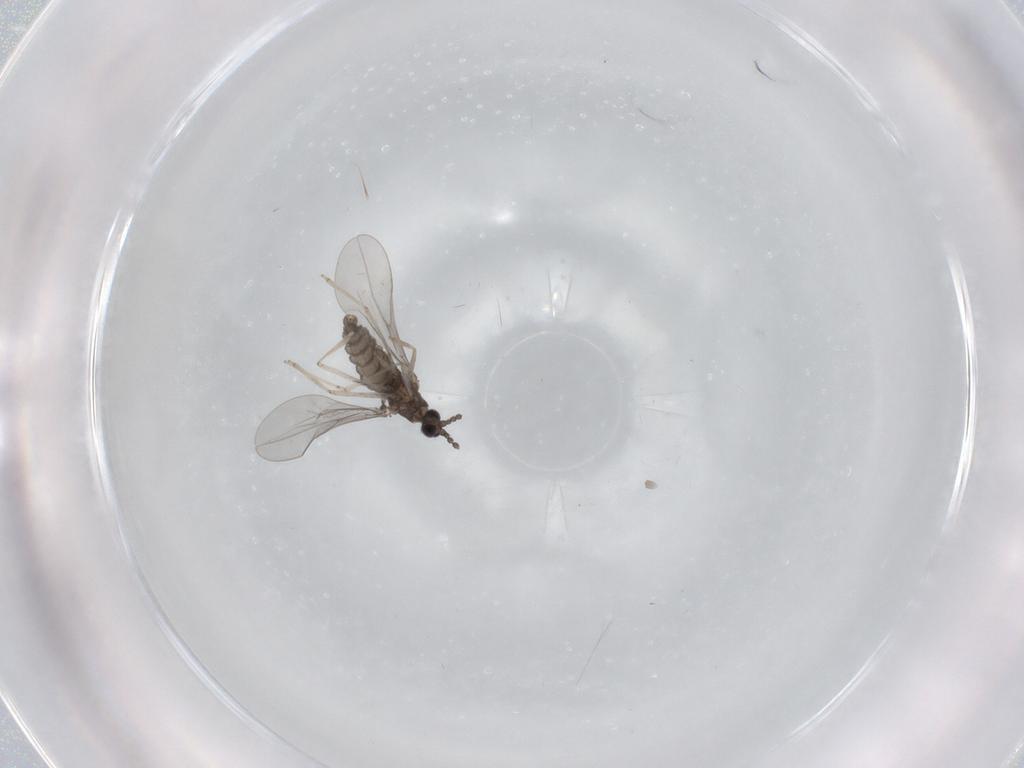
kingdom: Animalia
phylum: Arthropoda
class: Insecta
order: Diptera
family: Cecidomyiidae
